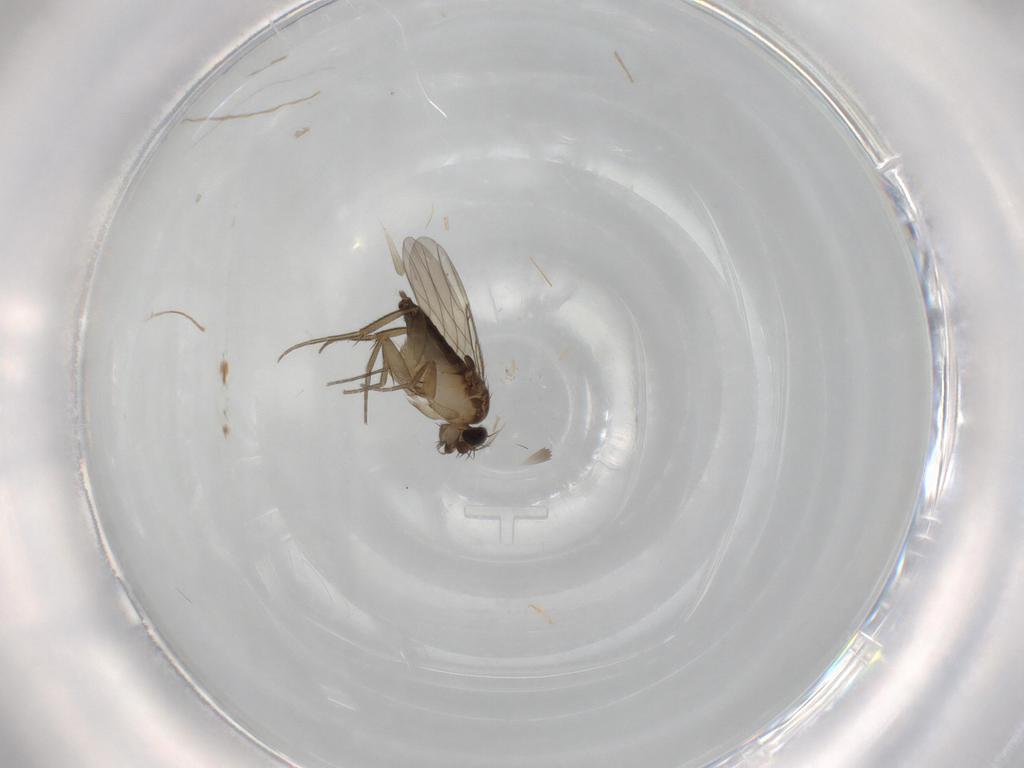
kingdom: Animalia
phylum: Arthropoda
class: Insecta
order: Diptera
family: Phoridae
